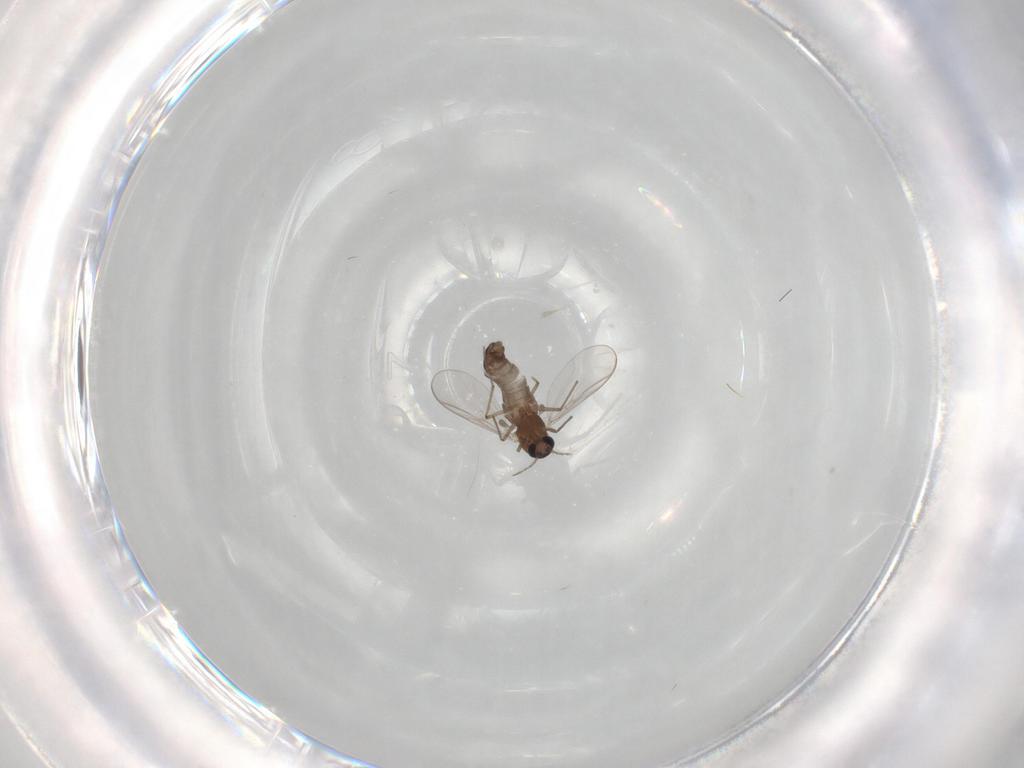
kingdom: Animalia
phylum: Arthropoda
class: Insecta
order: Diptera
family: Chironomidae
